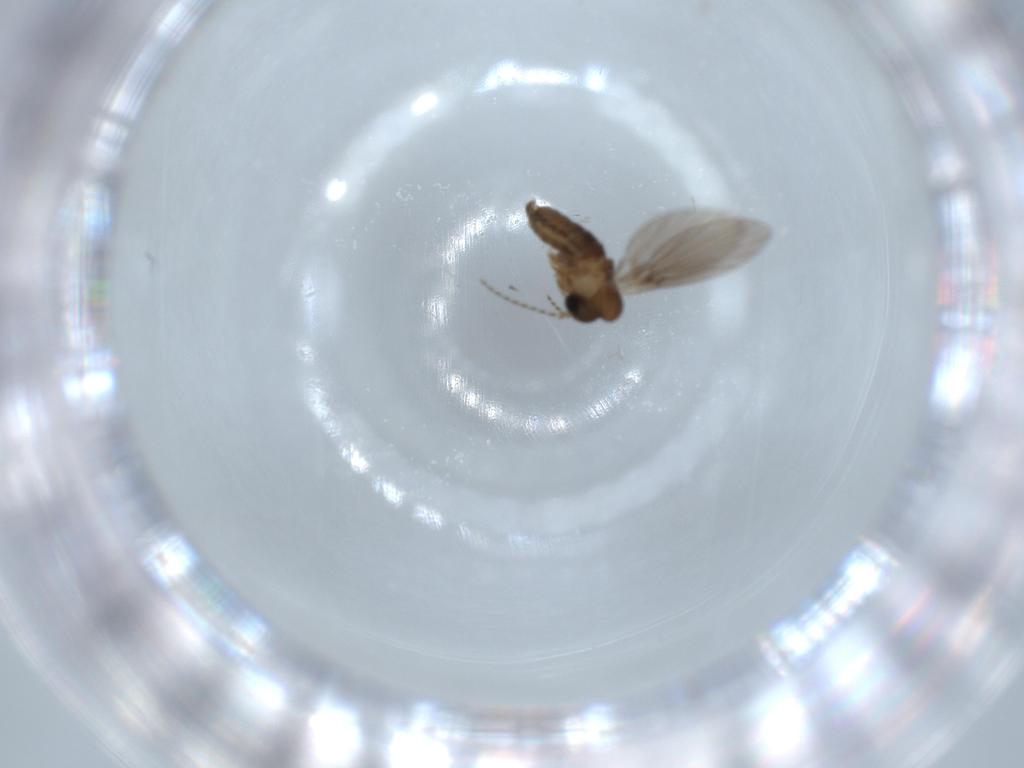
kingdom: Animalia
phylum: Arthropoda
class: Insecta
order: Diptera
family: Psychodidae
